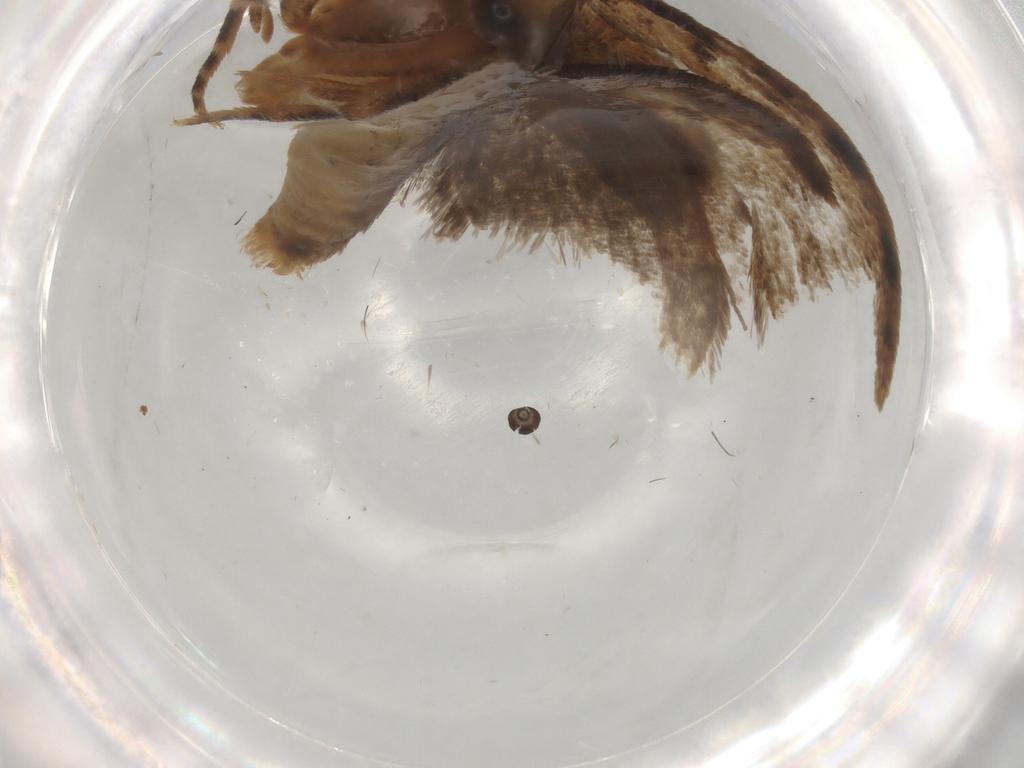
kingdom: Animalia
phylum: Arthropoda
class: Insecta
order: Lepidoptera
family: Tineidae
